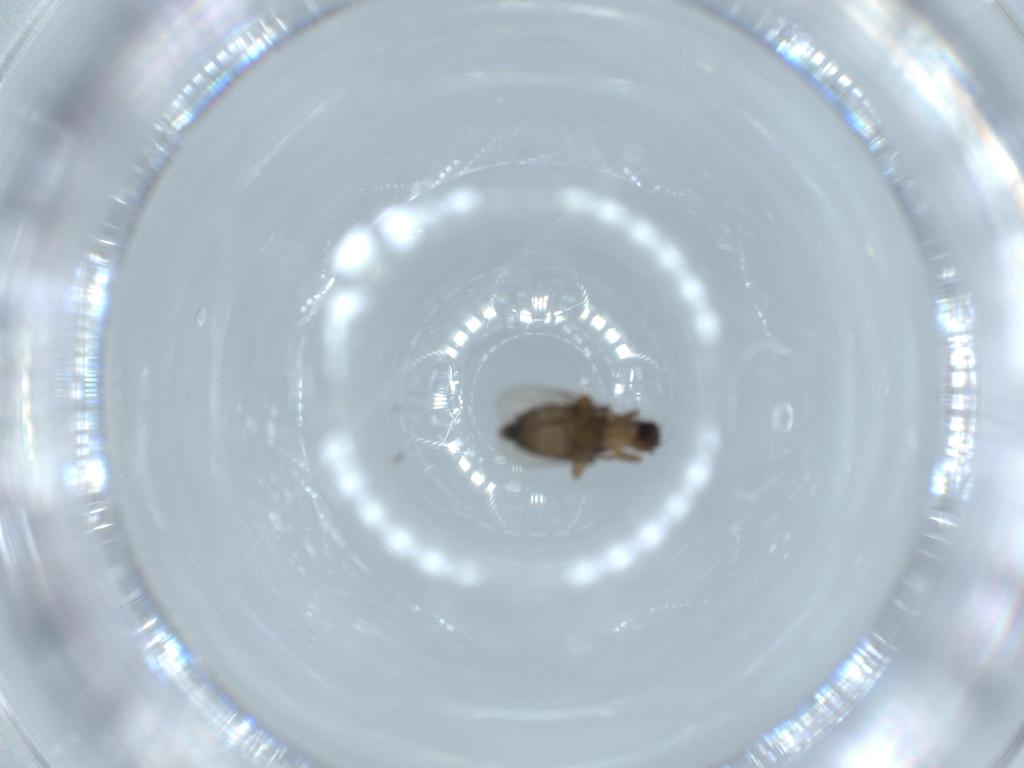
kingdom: Animalia
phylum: Arthropoda
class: Insecta
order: Diptera
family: Phoridae
